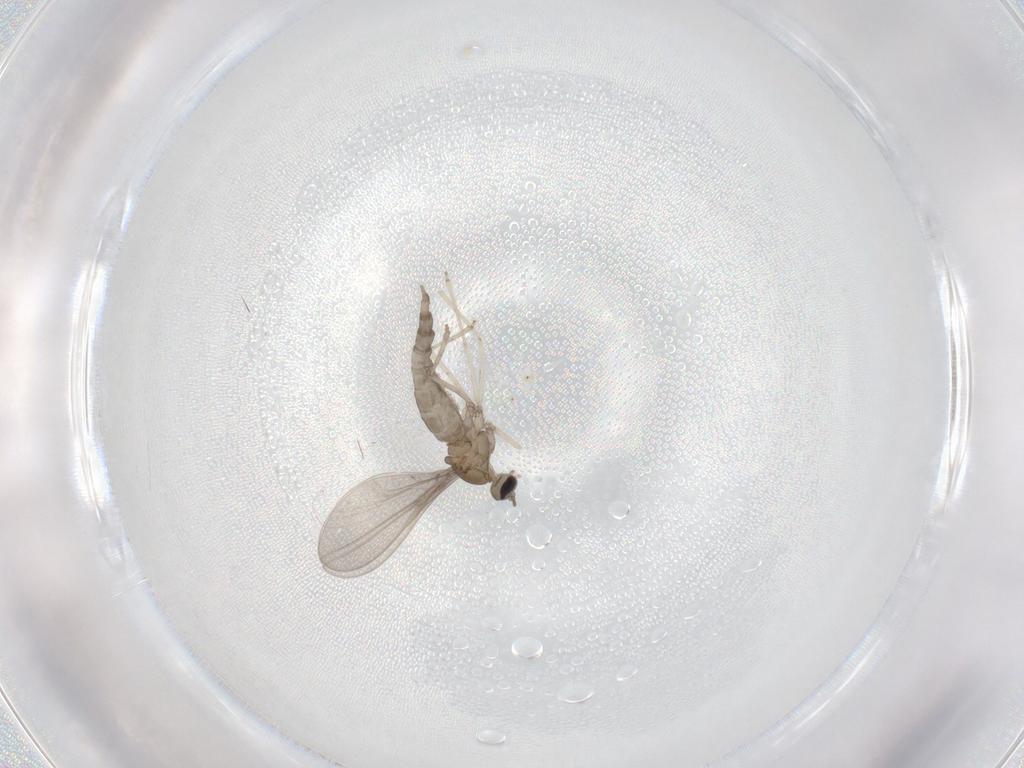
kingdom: Animalia
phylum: Arthropoda
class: Insecta
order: Diptera
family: Cecidomyiidae
